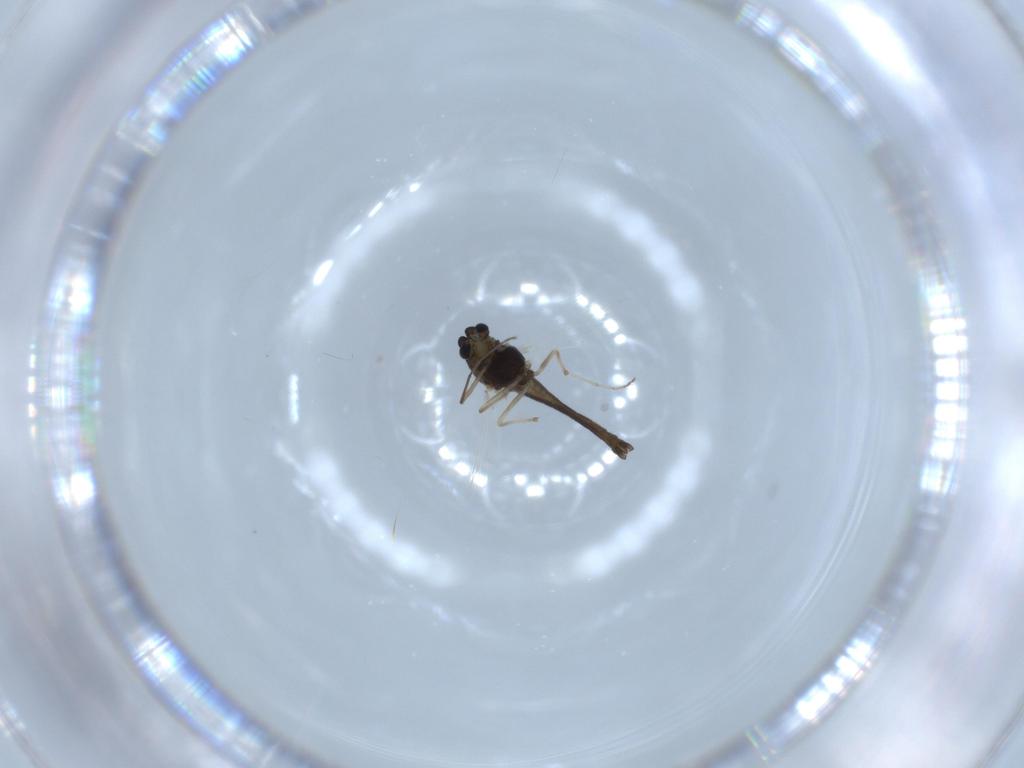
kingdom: Animalia
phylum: Arthropoda
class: Insecta
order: Diptera
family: Chironomidae
